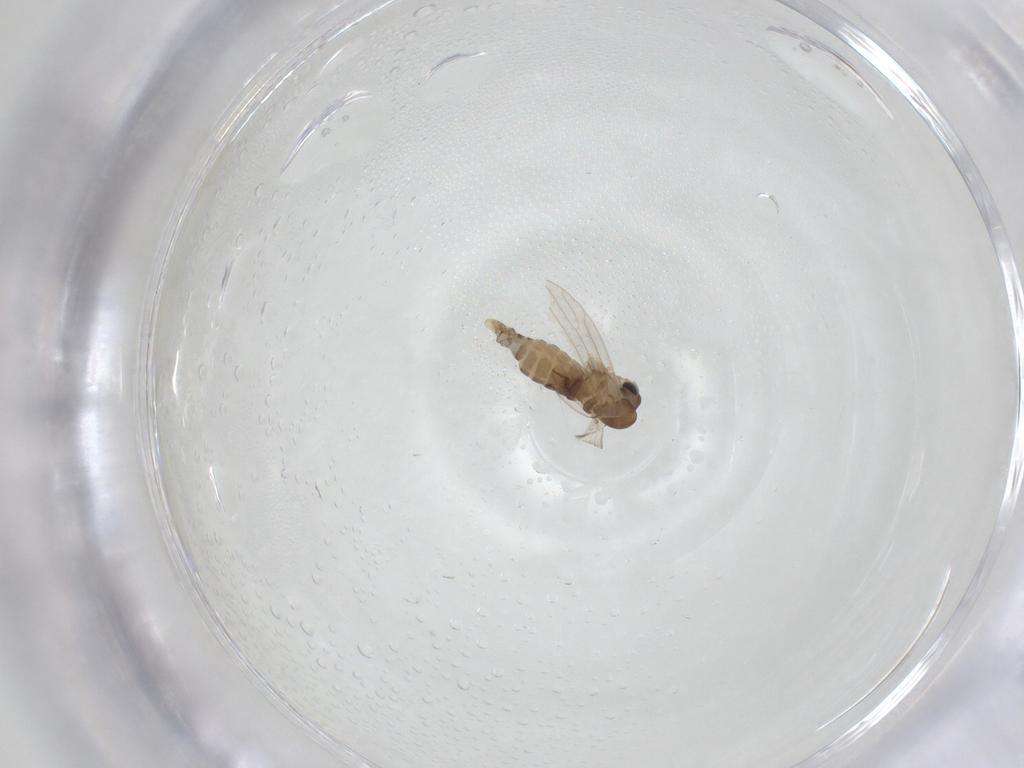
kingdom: Animalia
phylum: Arthropoda
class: Insecta
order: Diptera
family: Sciaridae
